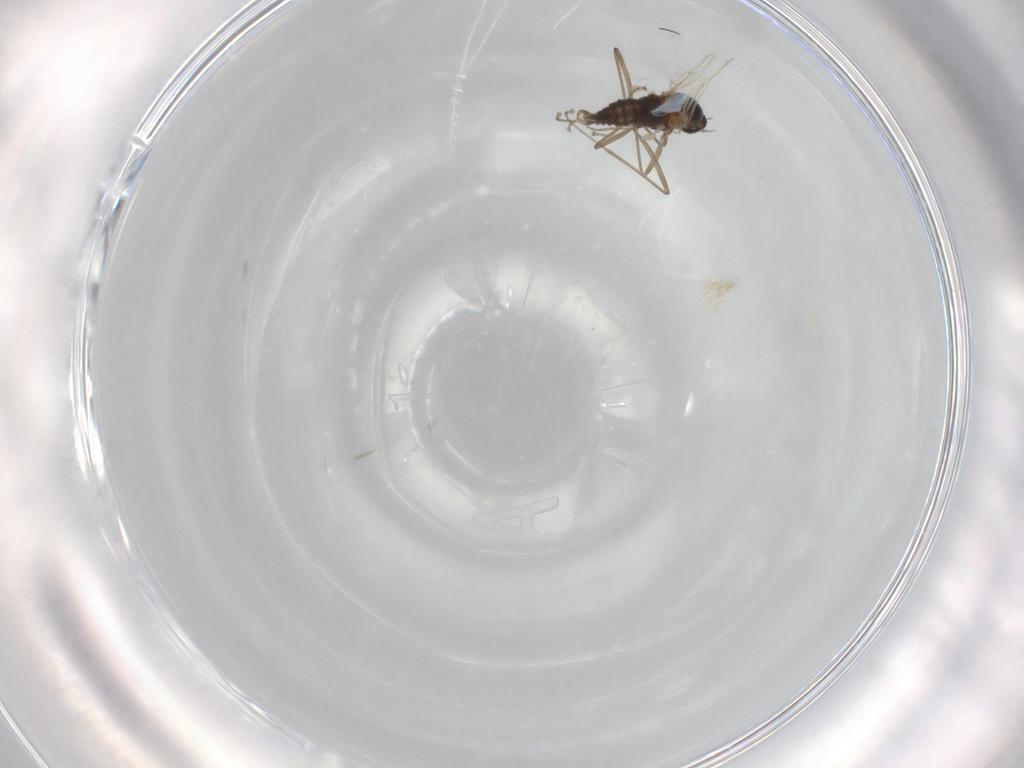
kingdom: Animalia
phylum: Arthropoda
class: Insecta
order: Diptera
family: Cecidomyiidae
